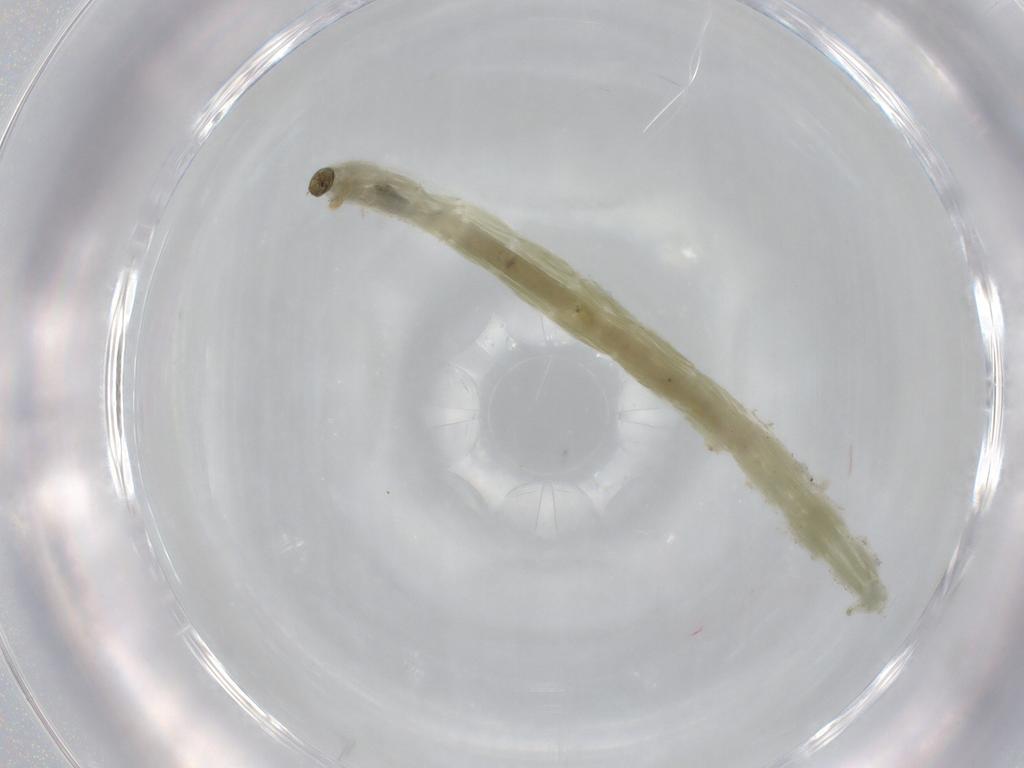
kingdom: Animalia
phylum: Arthropoda
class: Insecta
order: Diptera
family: Chironomidae
